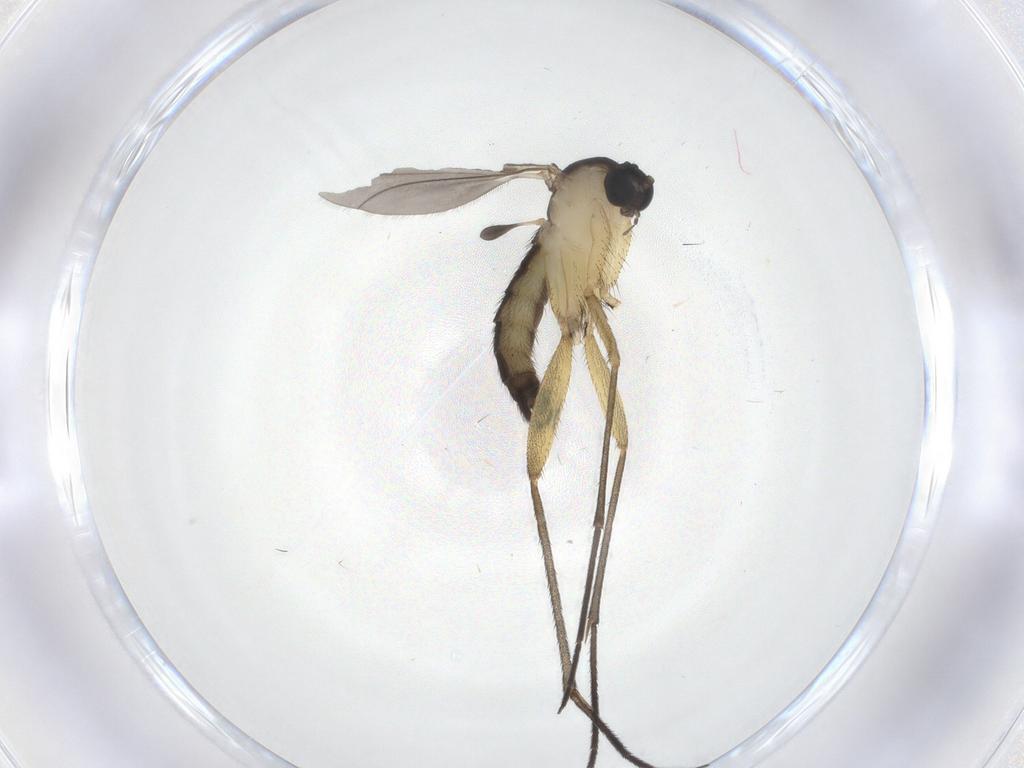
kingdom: Animalia
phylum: Arthropoda
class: Insecta
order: Diptera
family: Sciaridae
